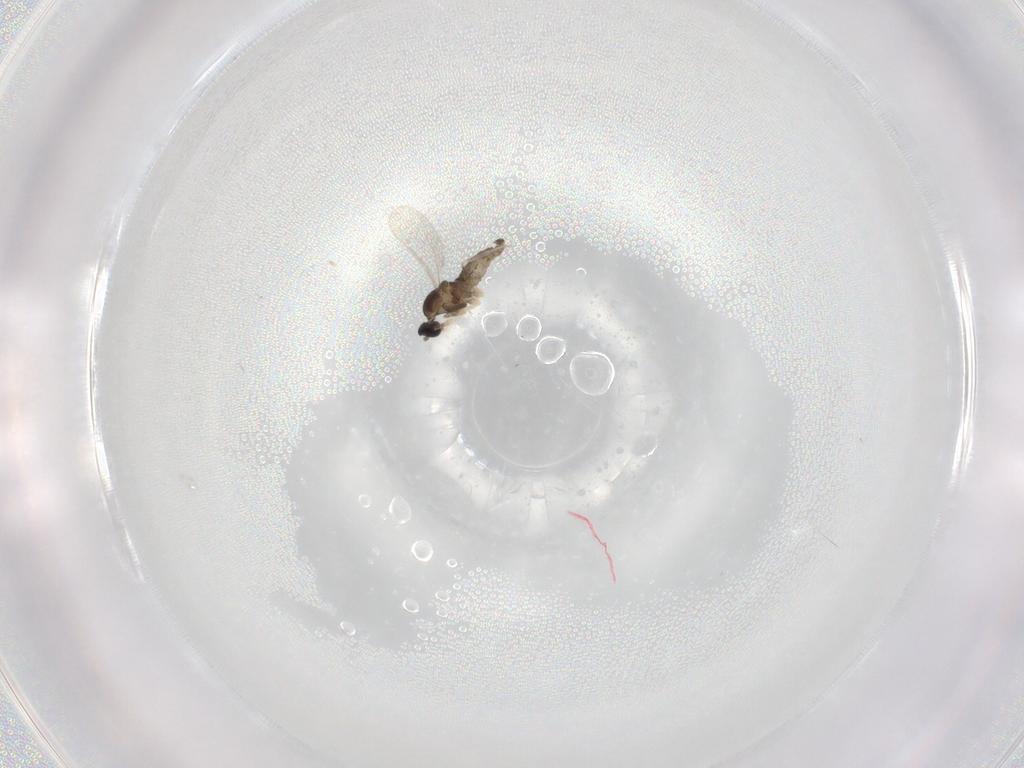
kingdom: Animalia
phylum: Arthropoda
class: Insecta
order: Diptera
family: Cecidomyiidae
